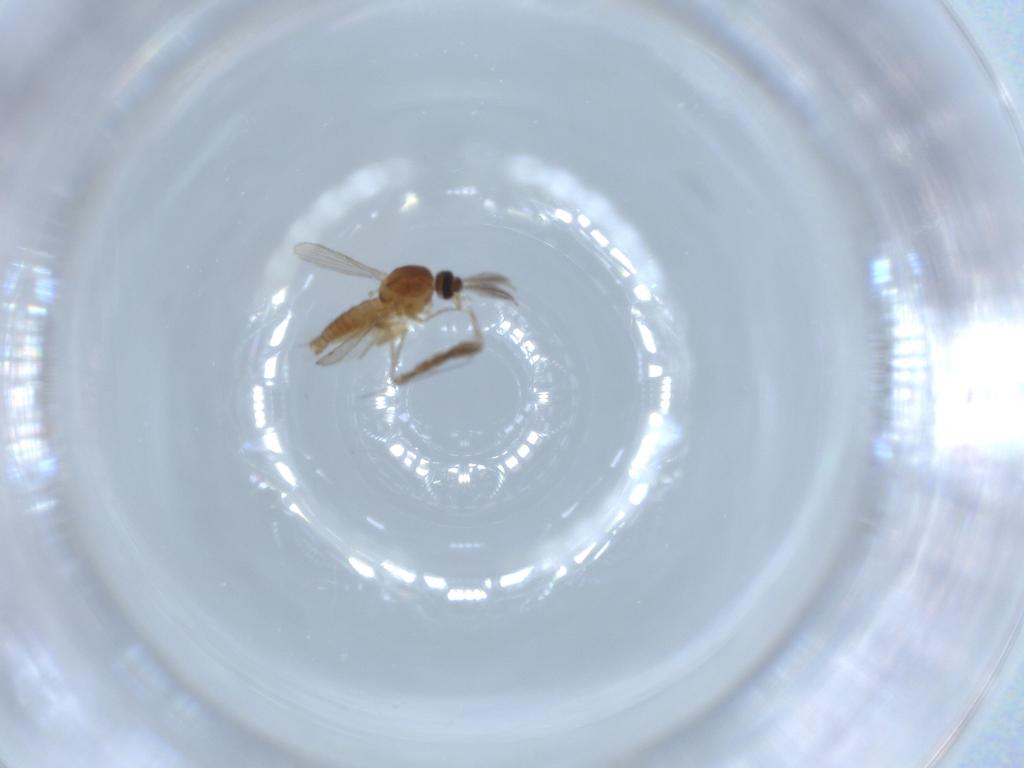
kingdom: Animalia
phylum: Arthropoda
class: Insecta
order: Diptera
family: Ceratopogonidae
